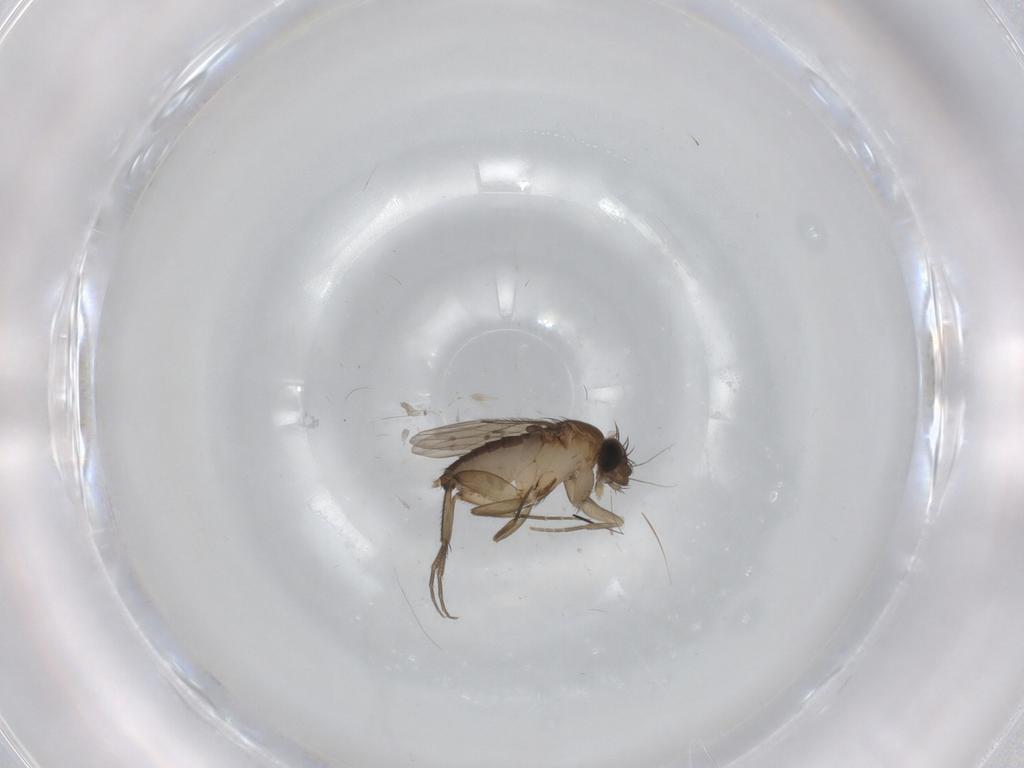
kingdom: Animalia
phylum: Arthropoda
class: Insecta
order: Diptera
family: Phoridae
